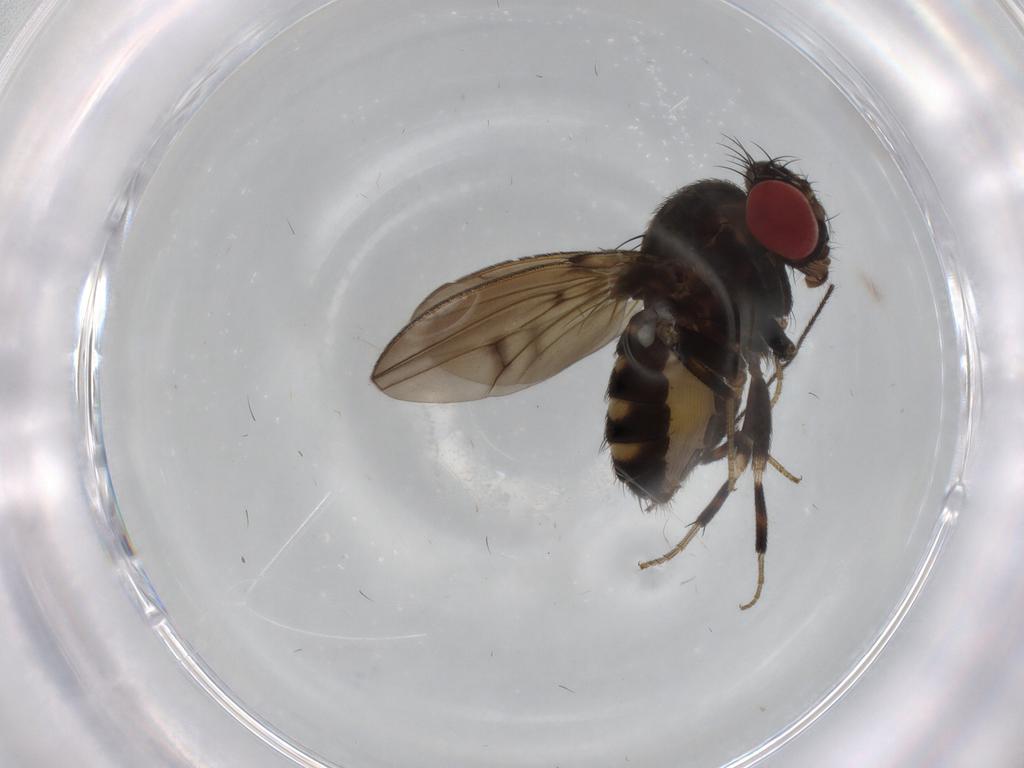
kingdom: Animalia
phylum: Arthropoda
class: Insecta
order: Diptera
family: Drosophilidae
